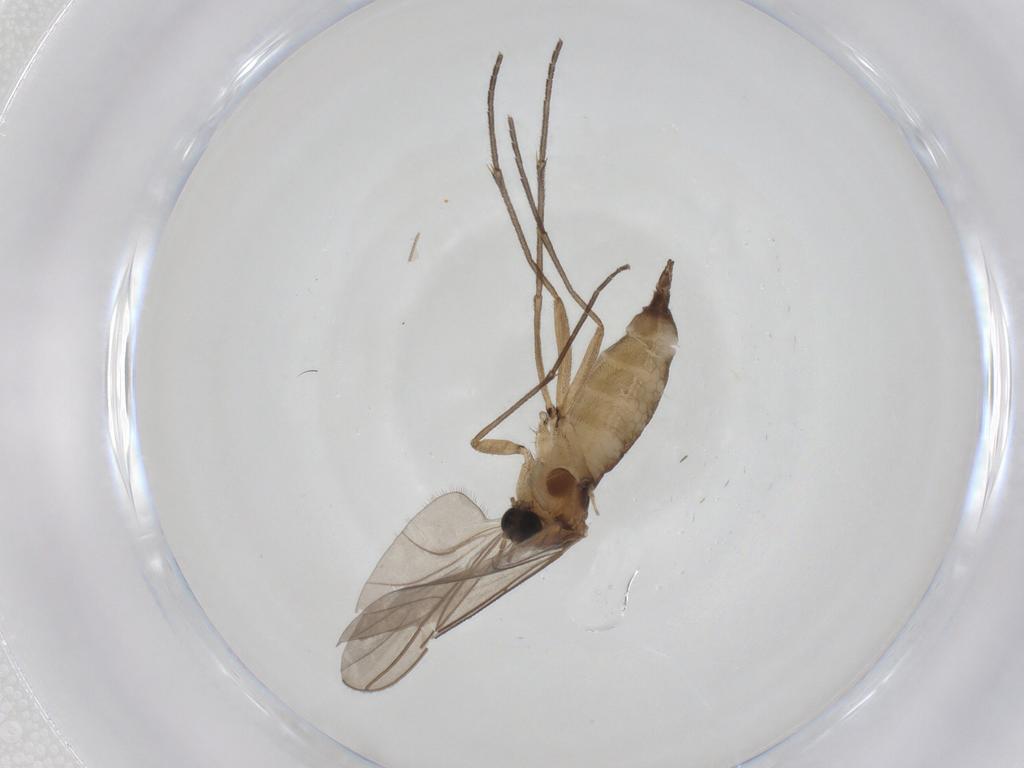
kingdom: Animalia
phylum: Arthropoda
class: Insecta
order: Diptera
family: Sciaridae
